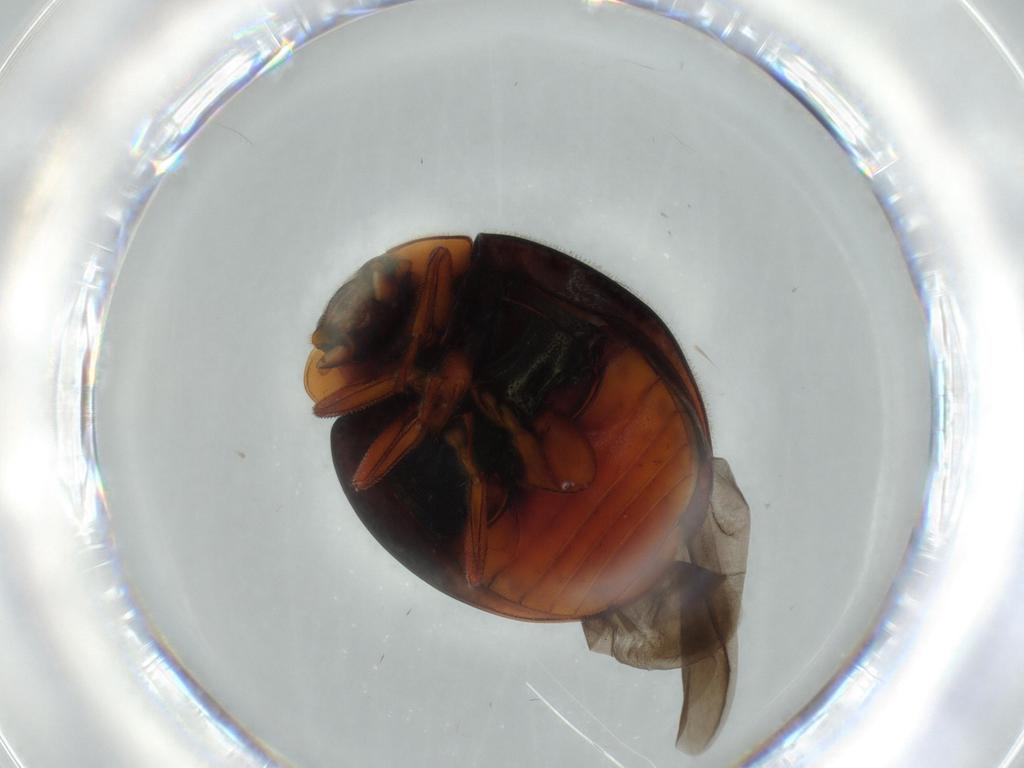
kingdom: Animalia
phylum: Arthropoda
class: Insecta
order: Coleoptera
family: Coccinellidae
